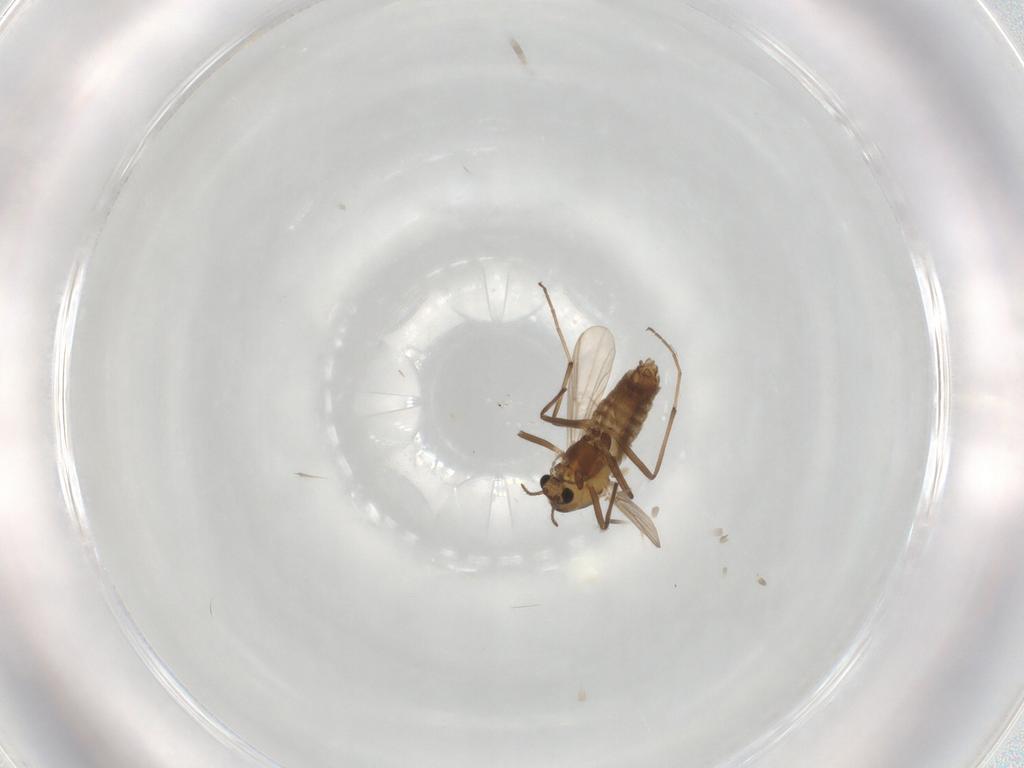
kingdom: Animalia
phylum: Arthropoda
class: Insecta
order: Diptera
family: Chironomidae
